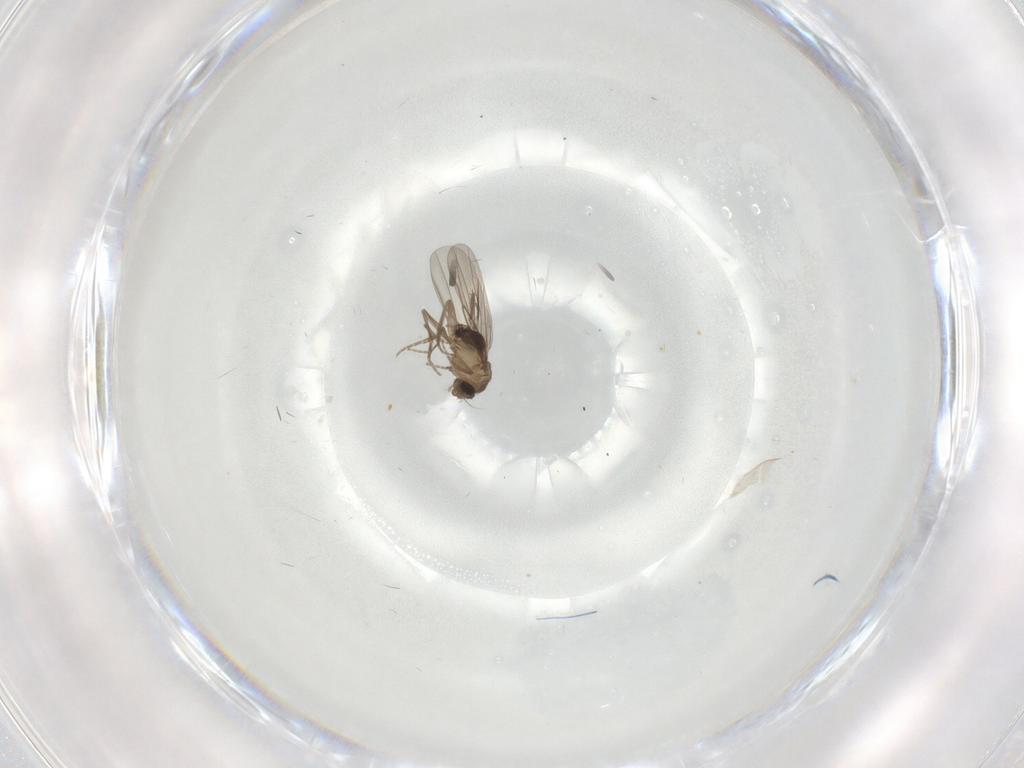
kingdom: Animalia
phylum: Arthropoda
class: Insecta
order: Diptera
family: Phoridae
